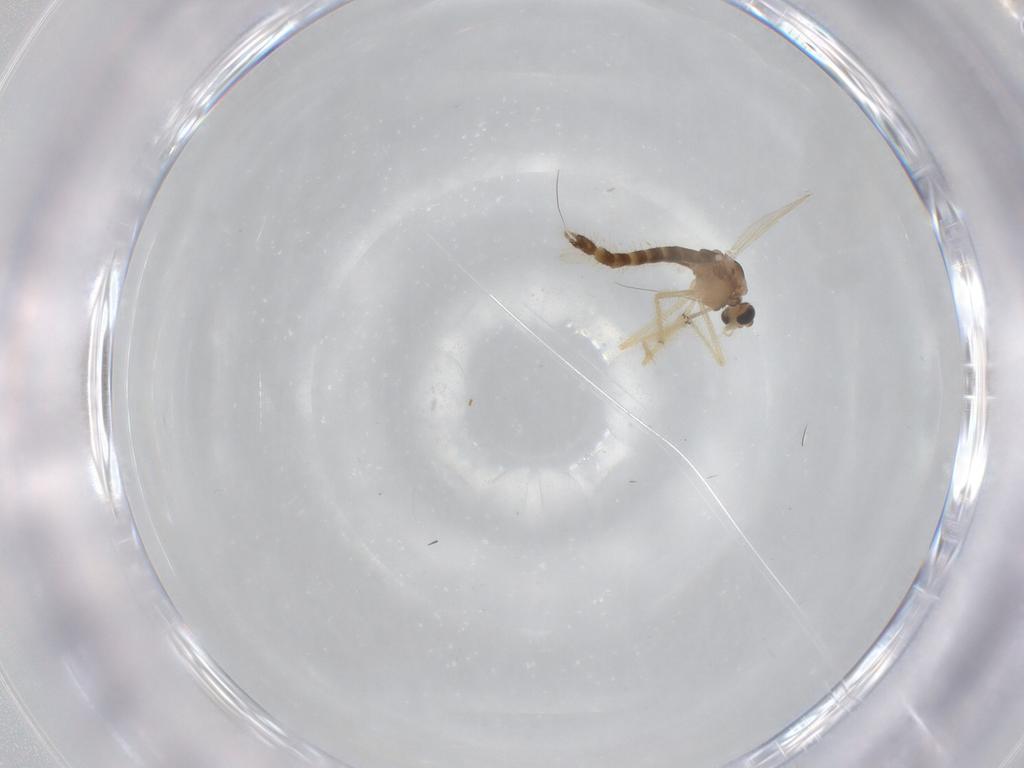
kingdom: Animalia
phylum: Arthropoda
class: Insecta
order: Diptera
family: Chironomidae
